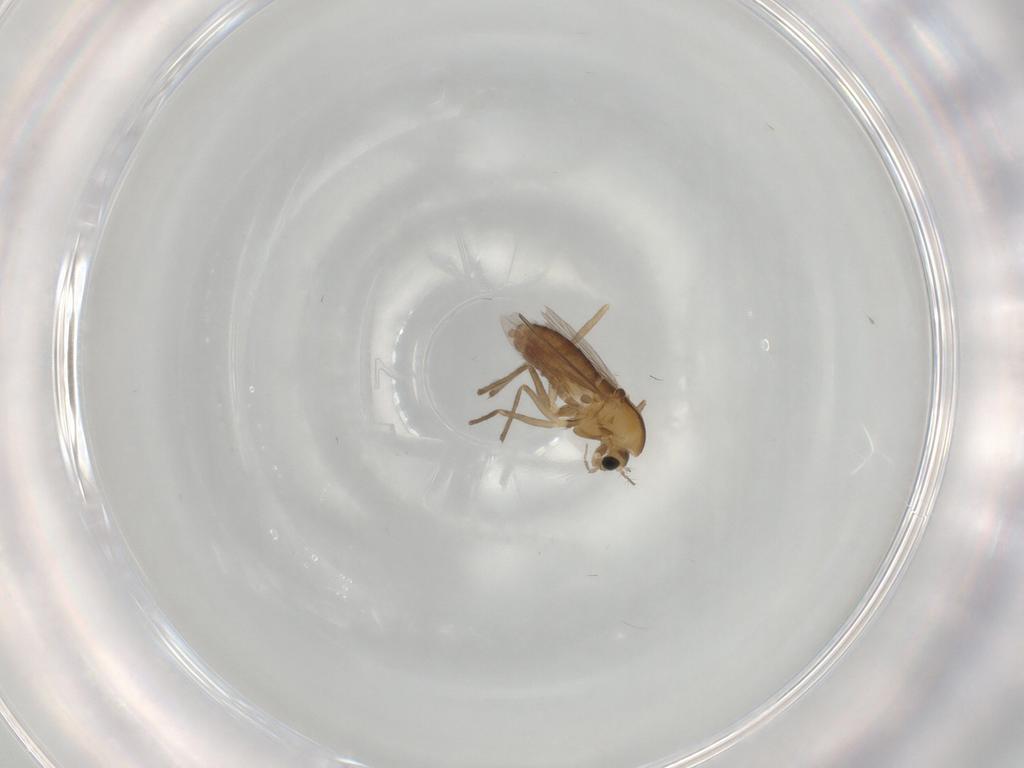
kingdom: Animalia
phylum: Arthropoda
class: Insecta
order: Diptera
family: Chironomidae
